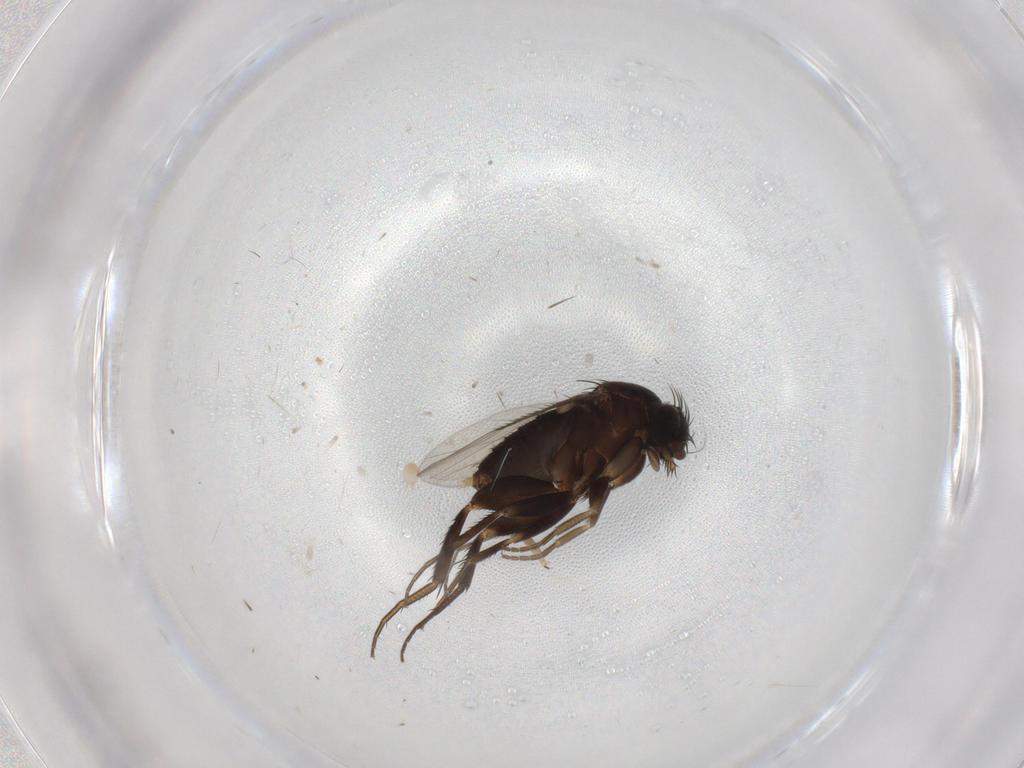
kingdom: Animalia
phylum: Arthropoda
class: Insecta
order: Diptera
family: Phoridae
